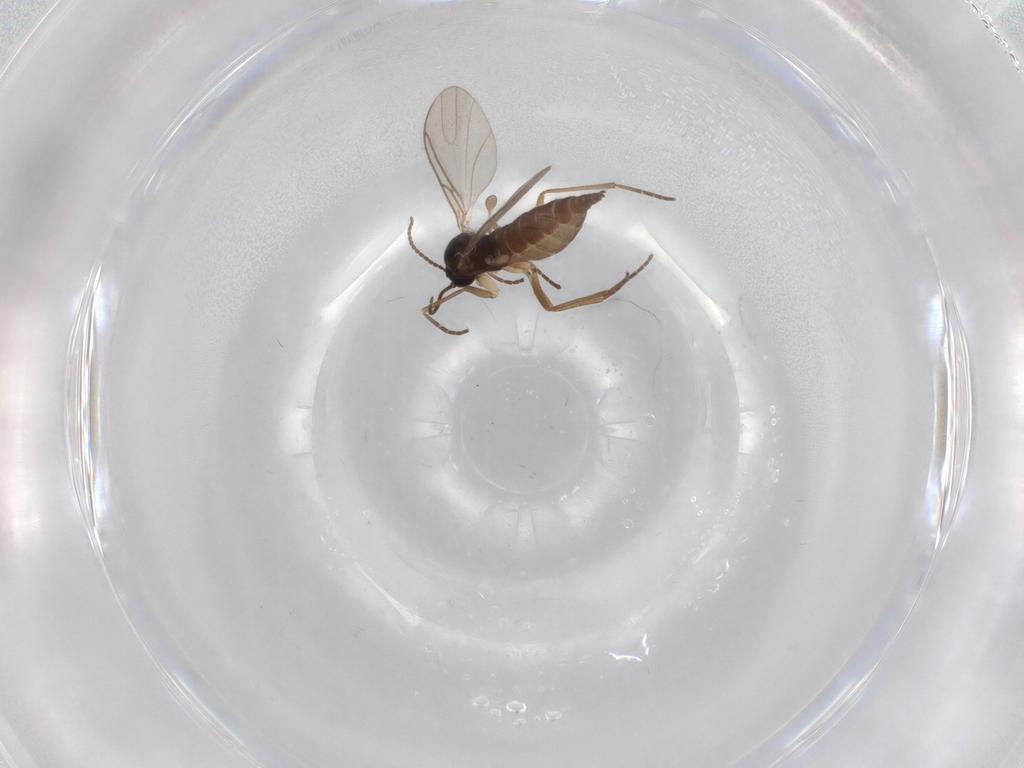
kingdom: Animalia
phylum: Arthropoda
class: Insecta
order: Diptera
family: Sciaridae
